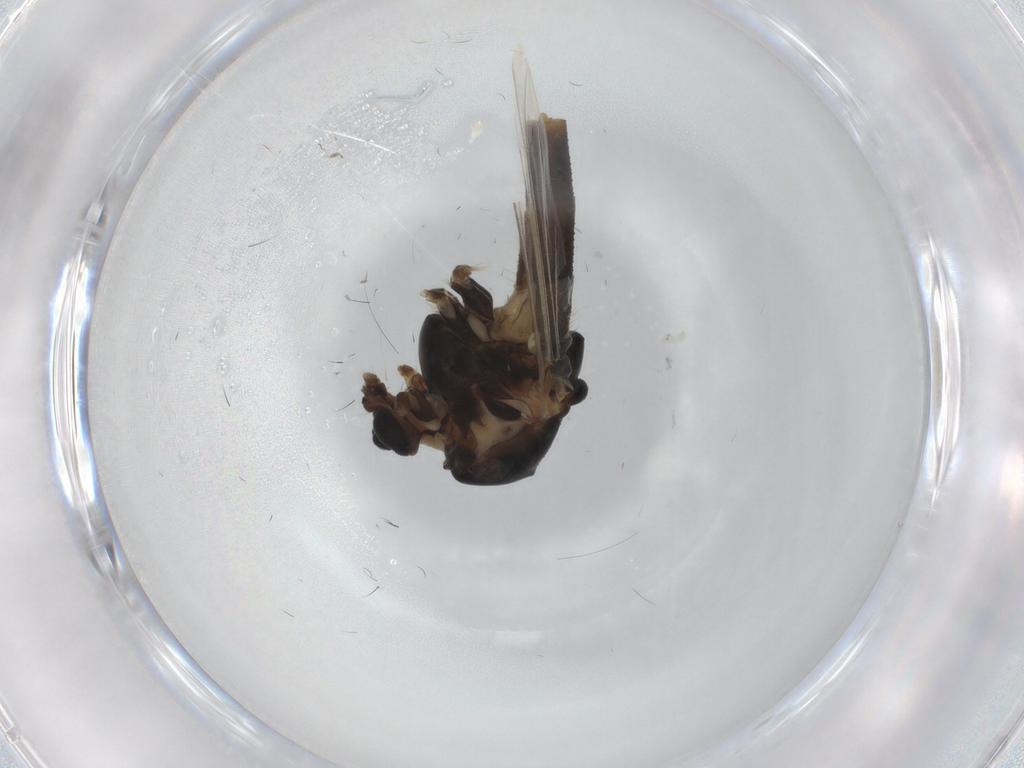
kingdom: Animalia
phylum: Arthropoda
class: Insecta
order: Diptera
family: Chironomidae
